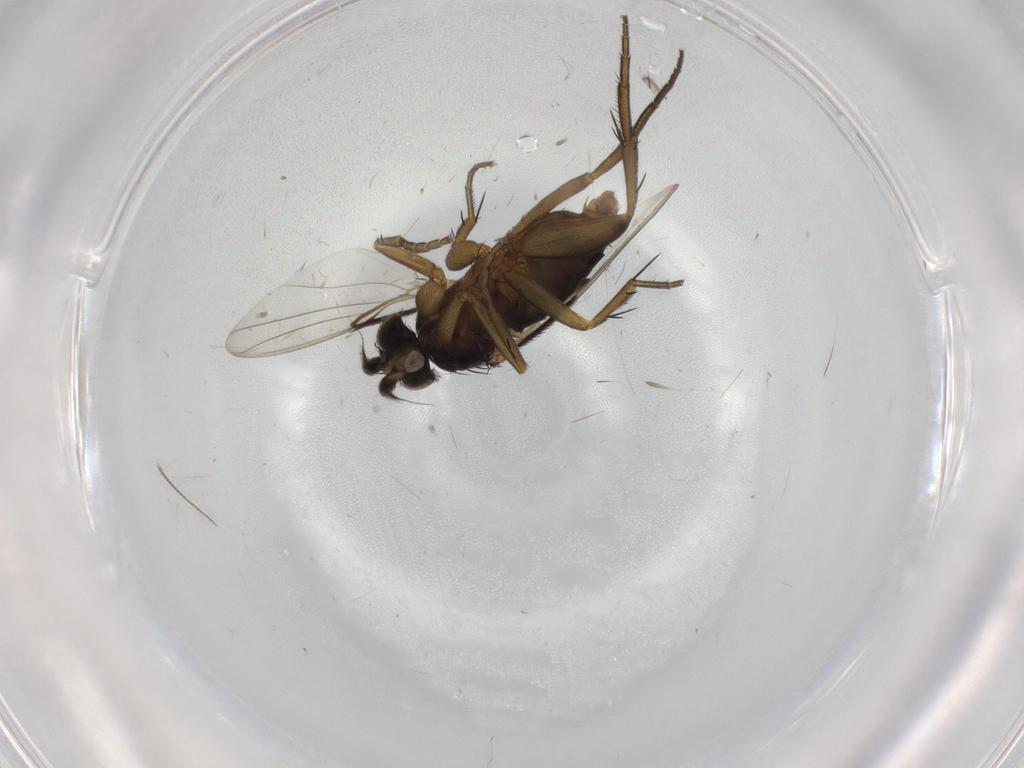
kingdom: Animalia
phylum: Arthropoda
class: Insecta
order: Diptera
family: Phoridae
